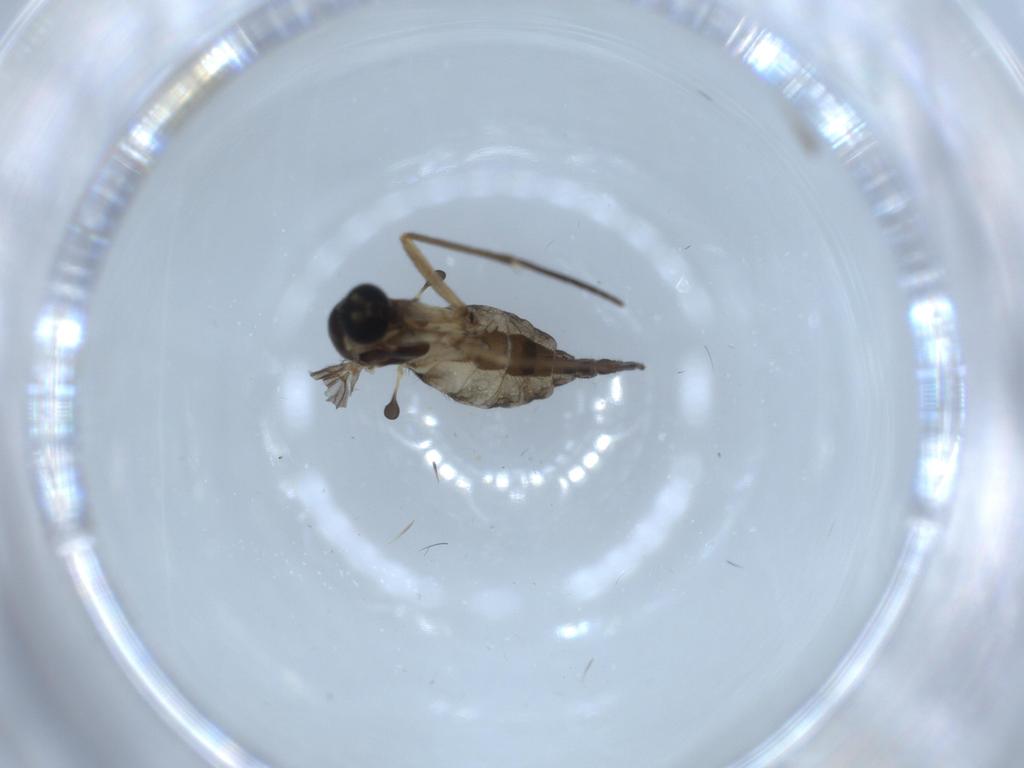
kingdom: Animalia
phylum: Arthropoda
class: Insecta
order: Diptera
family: Sciaridae
